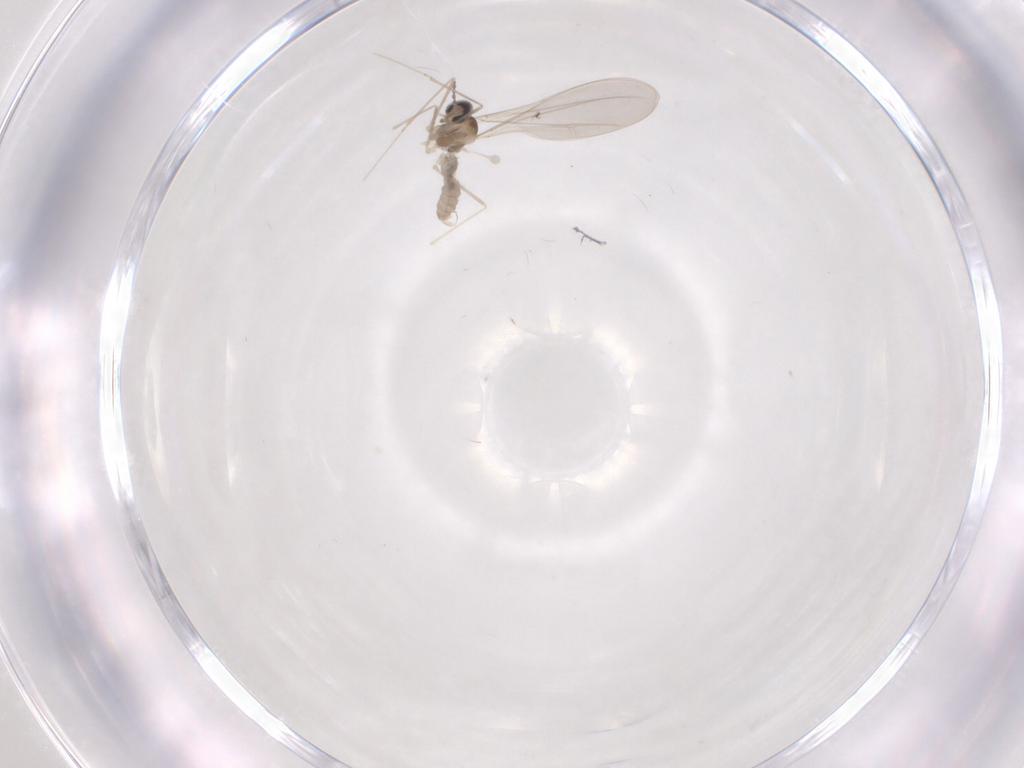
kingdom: Animalia
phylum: Arthropoda
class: Insecta
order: Diptera
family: Cecidomyiidae
